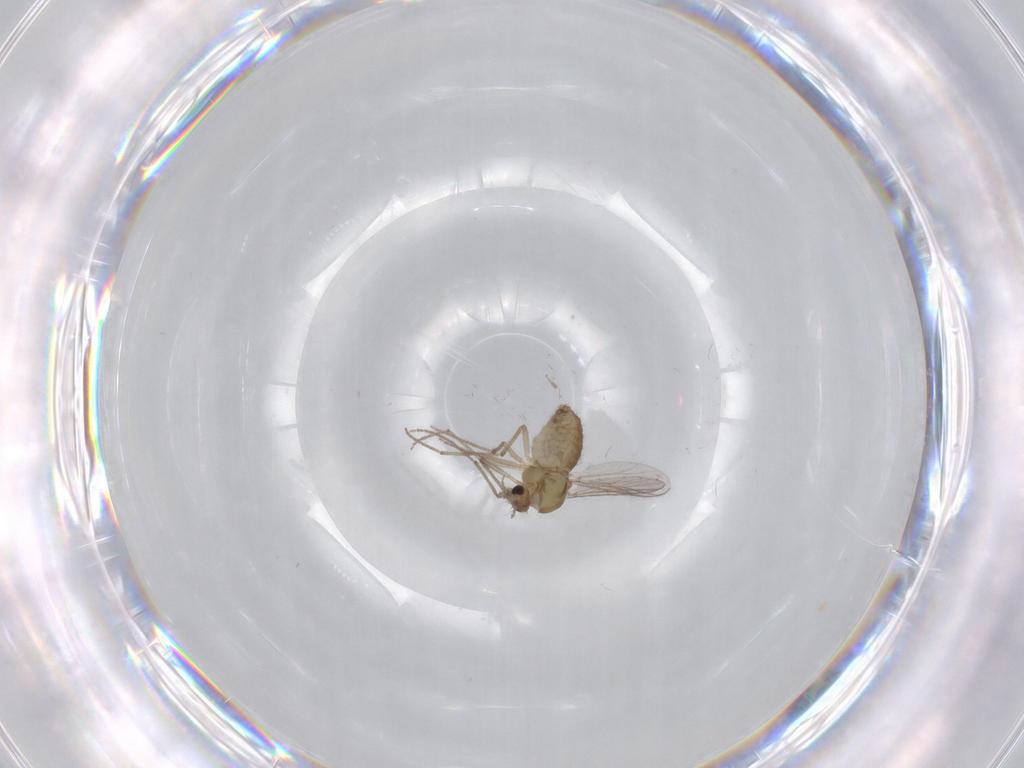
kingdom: Animalia
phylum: Arthropoda
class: Insecta
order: Diptera
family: Chironomidae
